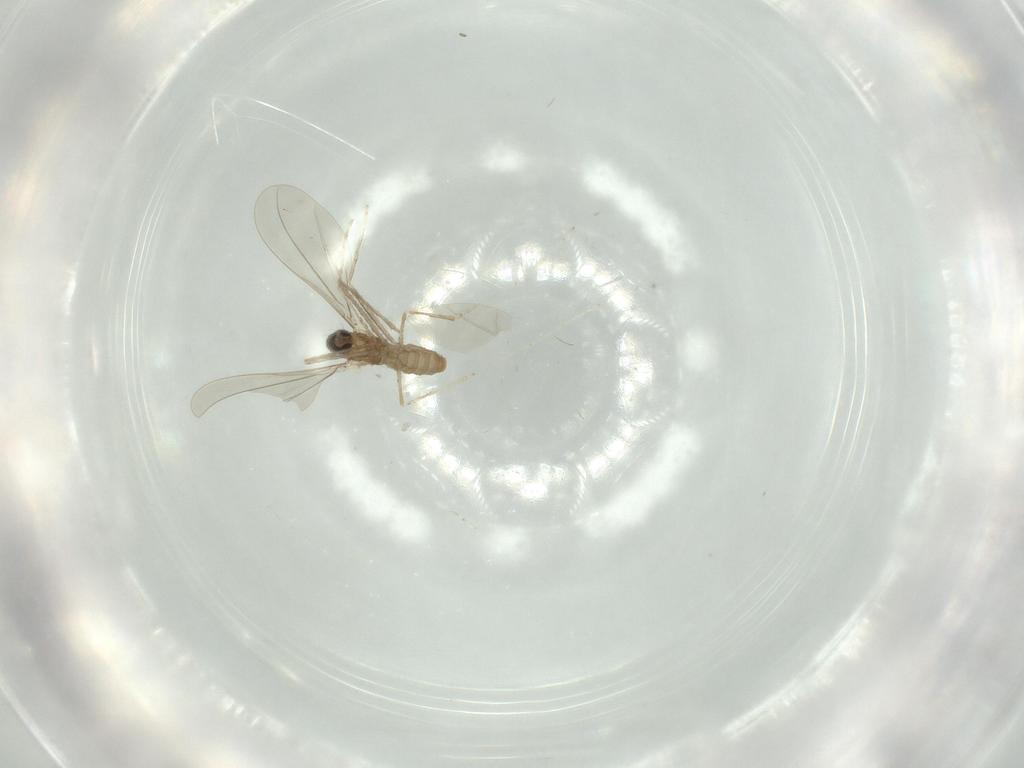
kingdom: Animalia
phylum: Arthropoda
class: Insecta
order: Diptera
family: Cecidomyiidae
